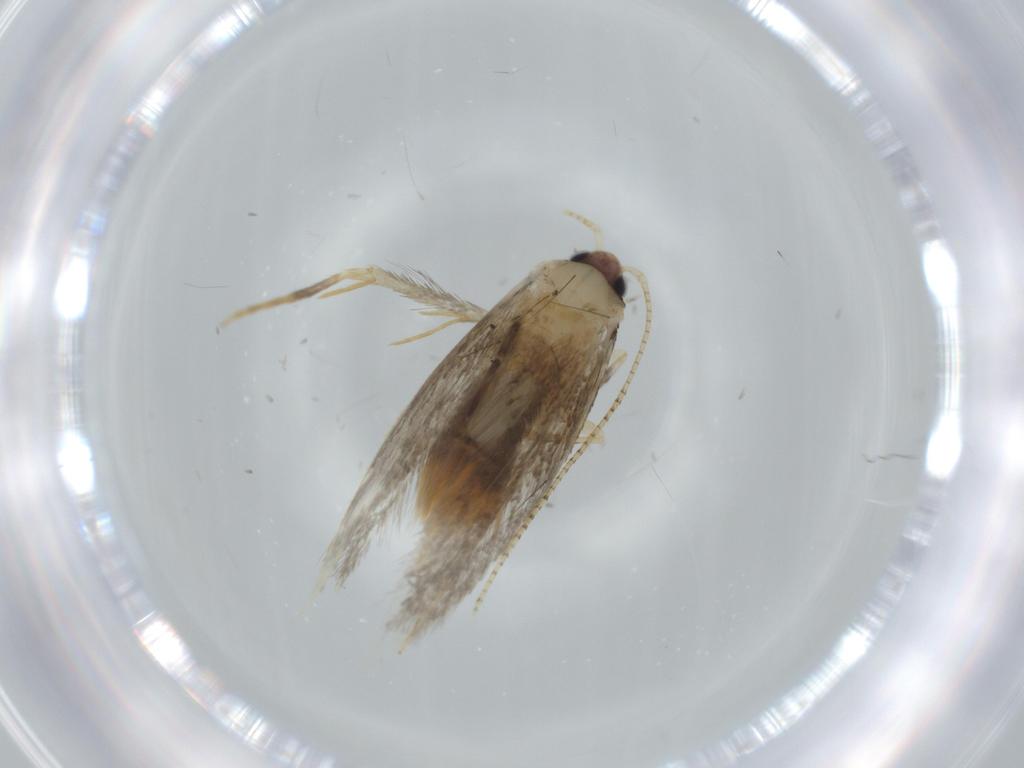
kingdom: Animalia
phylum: Arthropoda
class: Insecta
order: Lepidoptera
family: Tineidae
